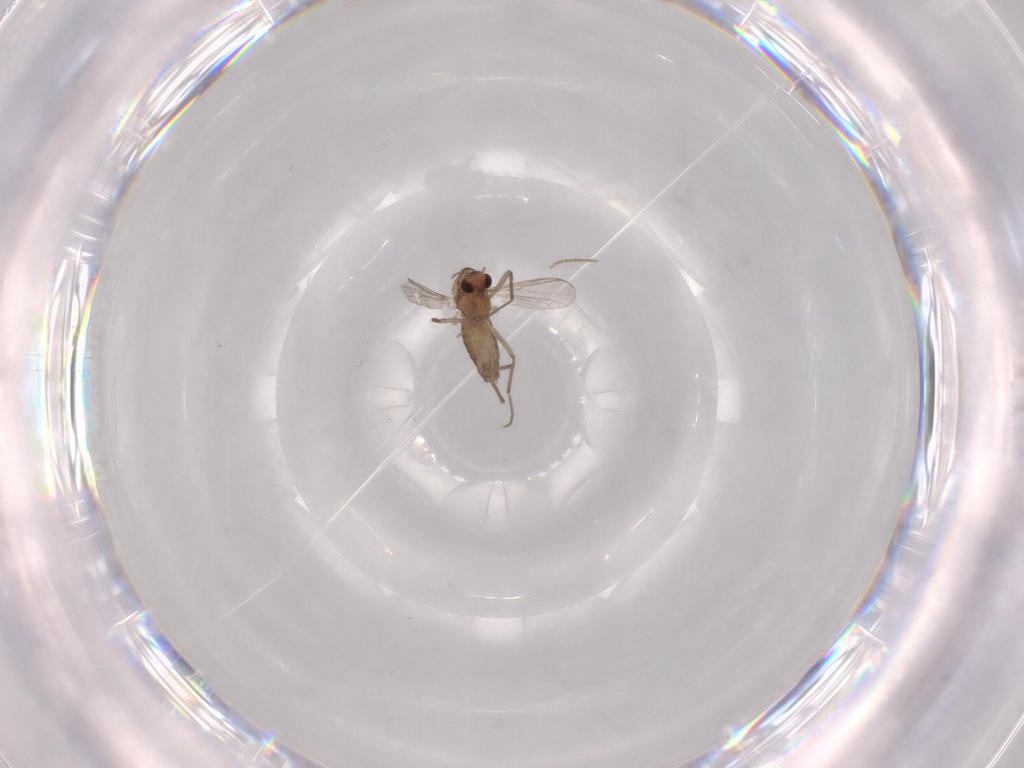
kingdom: Animalia
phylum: Arthropoda
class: Insecta
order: Diptera
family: Chironomidae
